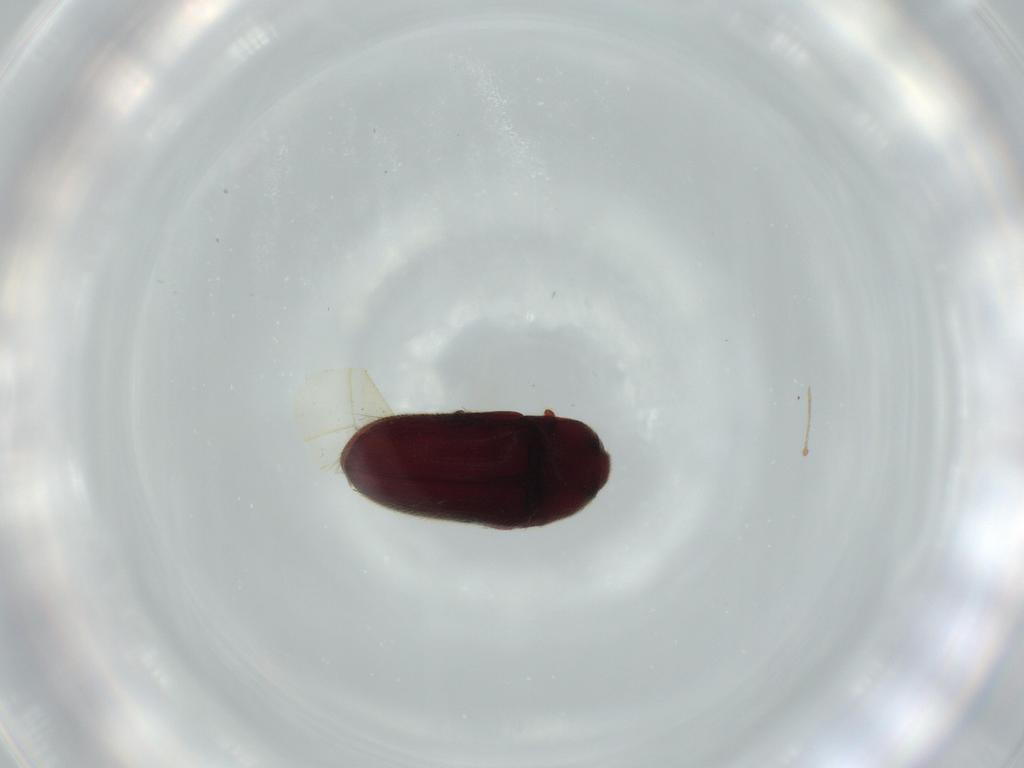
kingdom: Animalia
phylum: Arthropoda
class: Insecta
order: Coleoptera
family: Throscidae
